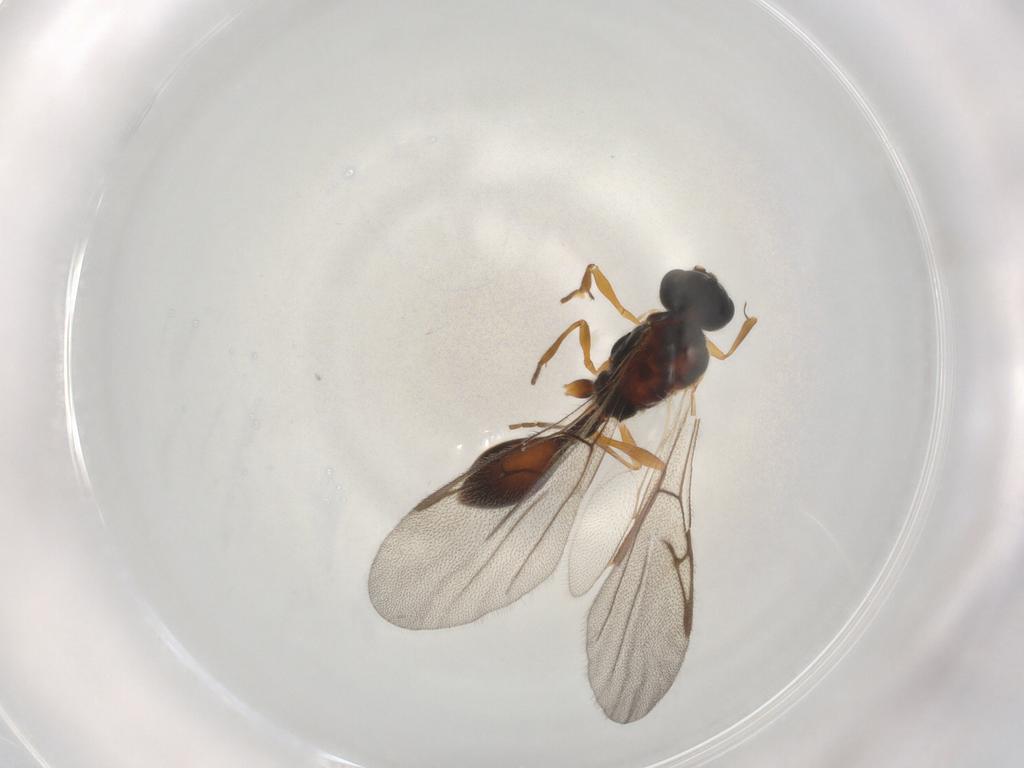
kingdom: Animalia
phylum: Arthropoda
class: Insecta
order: Hymenoptera
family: Diapriidae
